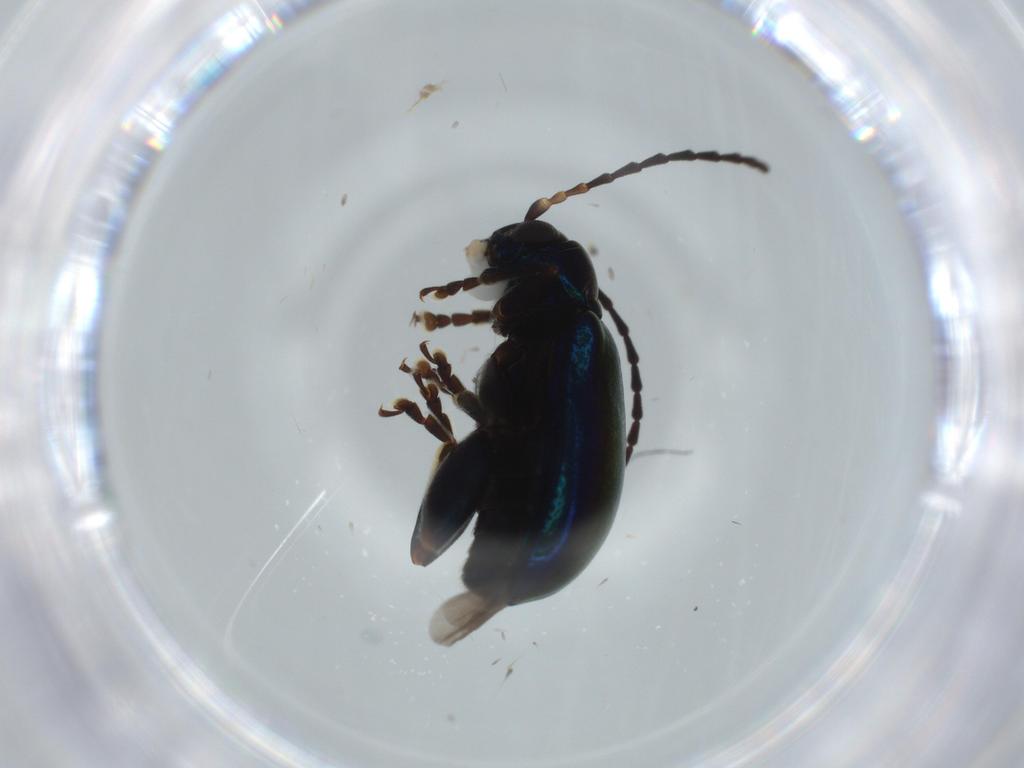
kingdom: Animalia
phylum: Arthropoda
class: Insecta
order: Coleoptera
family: Chrysomelidae
